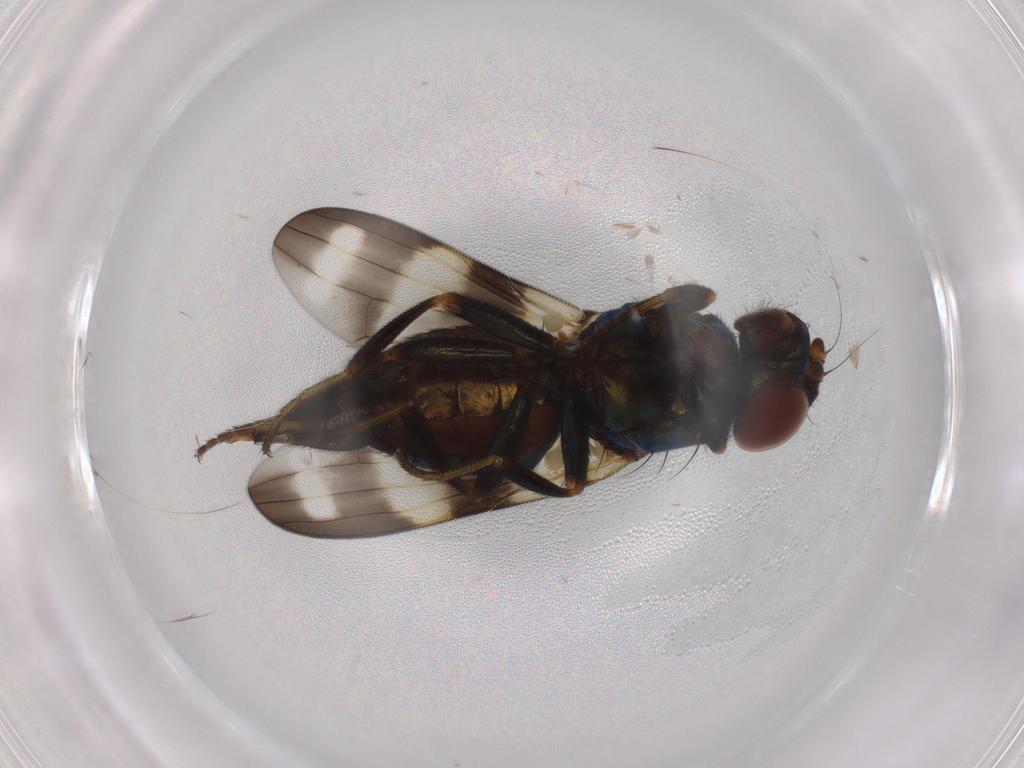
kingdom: Animalia
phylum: Arthropoda
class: Insecta
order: Diptera
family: Ulidiidae
